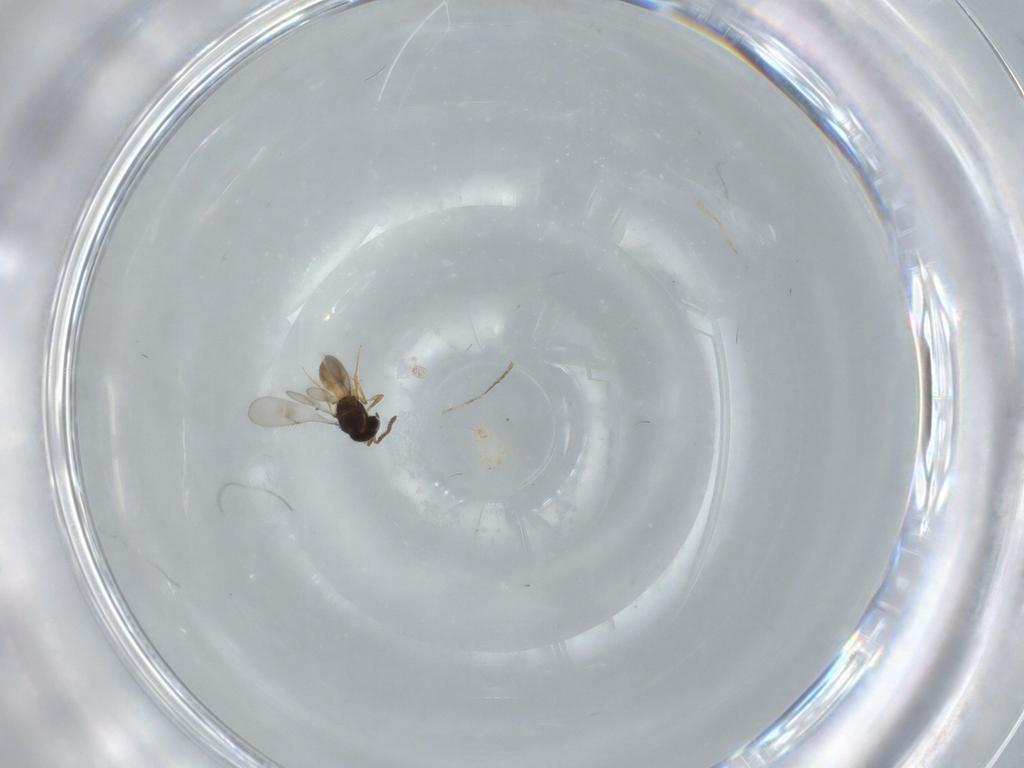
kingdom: Animalia
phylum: Arthropoda
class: Insecta
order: Hymenoptera
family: Scelionidae
